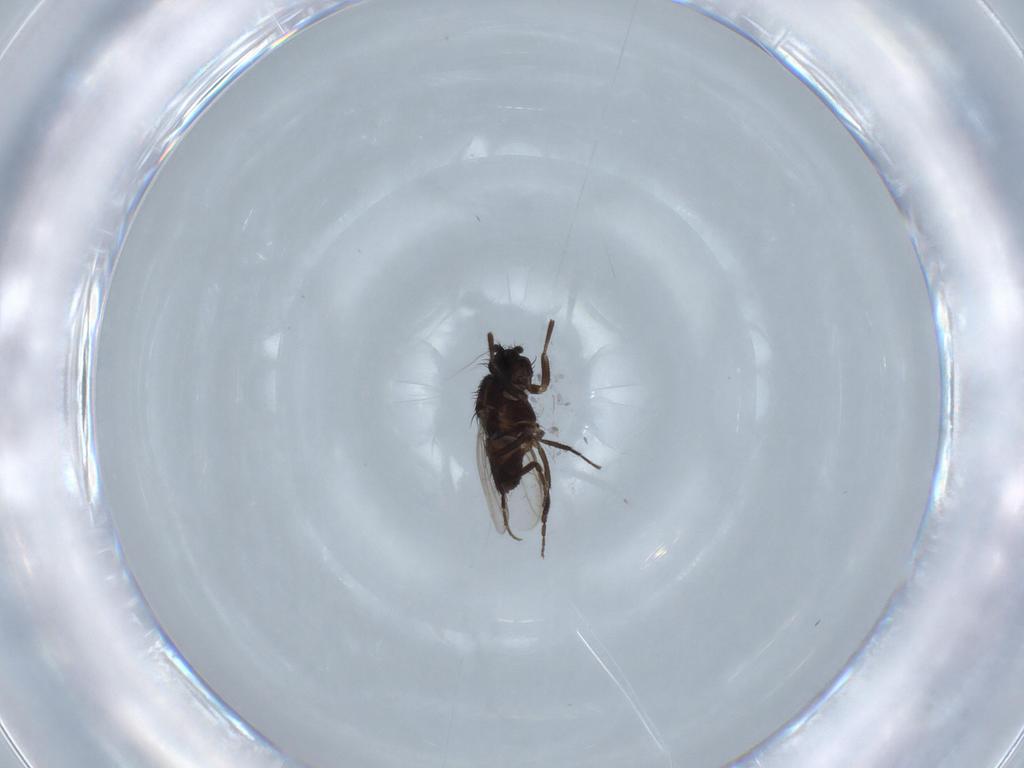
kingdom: Animalia
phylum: Arthropoda
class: Insecta
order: Diptera
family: Sphaeroceridae
